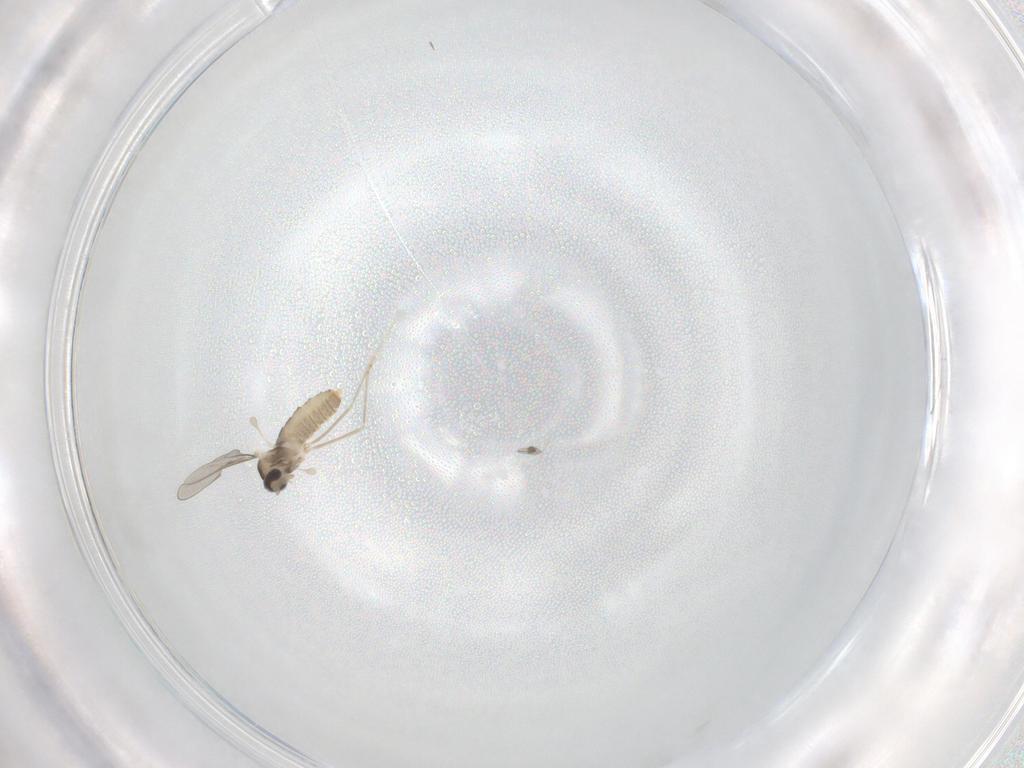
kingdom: Animalia
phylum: Arthropoda
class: Insecta
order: Diptera
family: Cecidomyiidae
